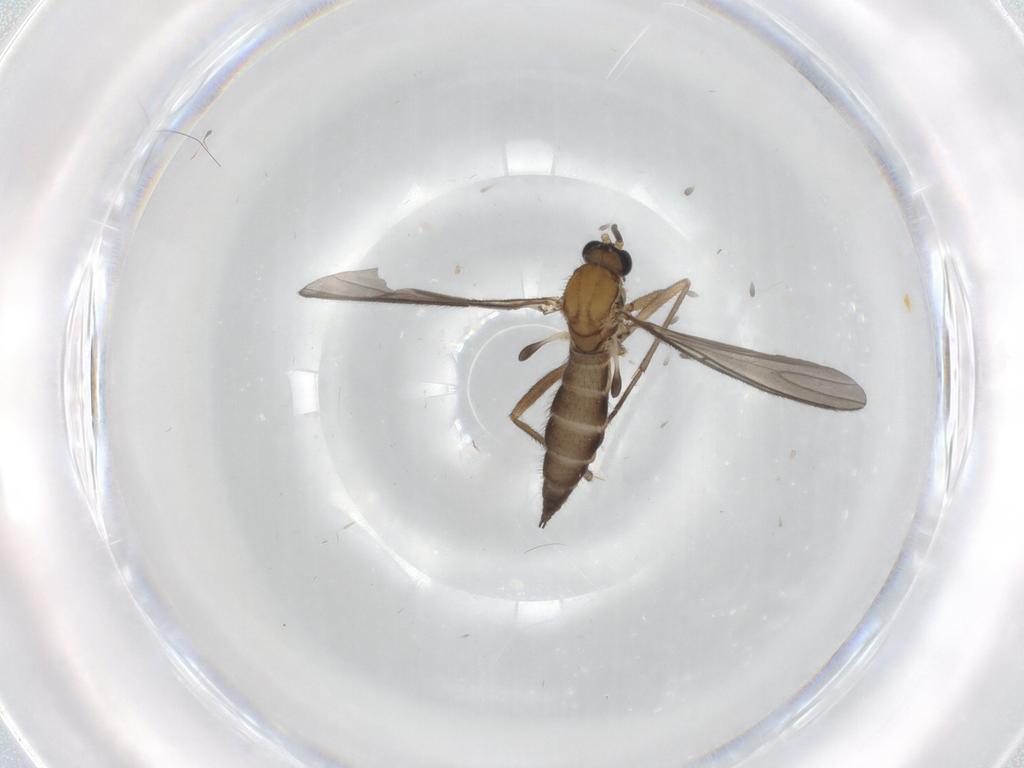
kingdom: Animalia
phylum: Arthropoda
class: Insecta
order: Diptera
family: Sciaridae
